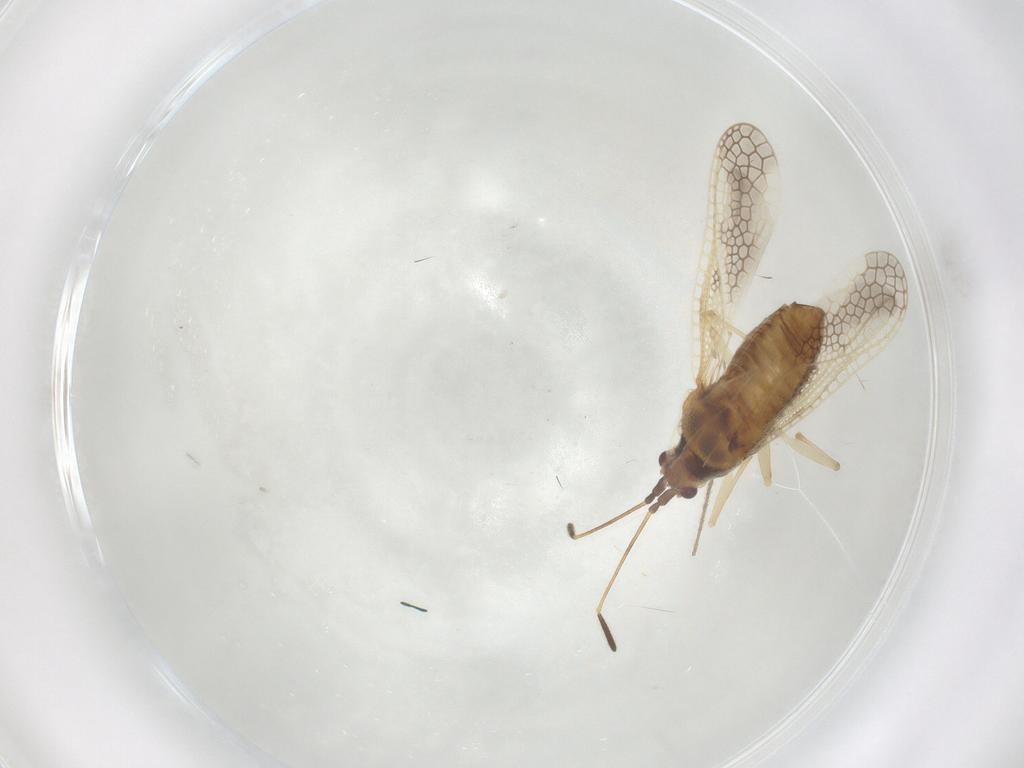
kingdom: Animalia
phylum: Arthropoda
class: Insecta
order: Hemiptera
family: Tingidae
